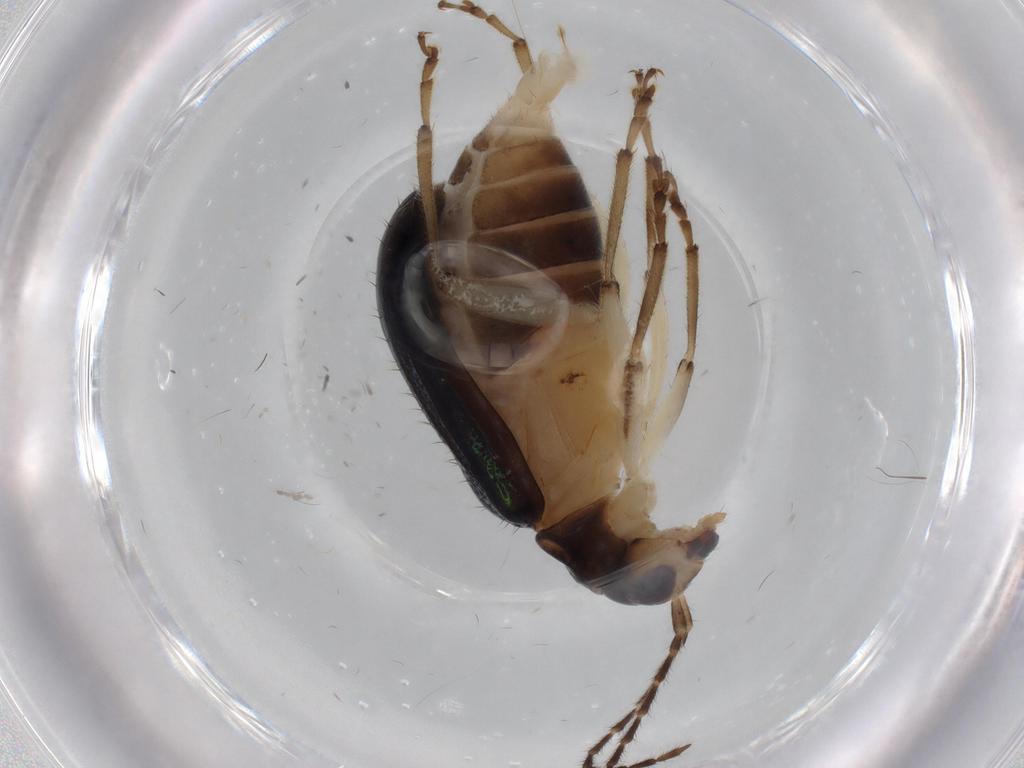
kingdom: Animalia
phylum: Arthropoda
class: Insecta
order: Coleoptera
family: Chrysomelidae
